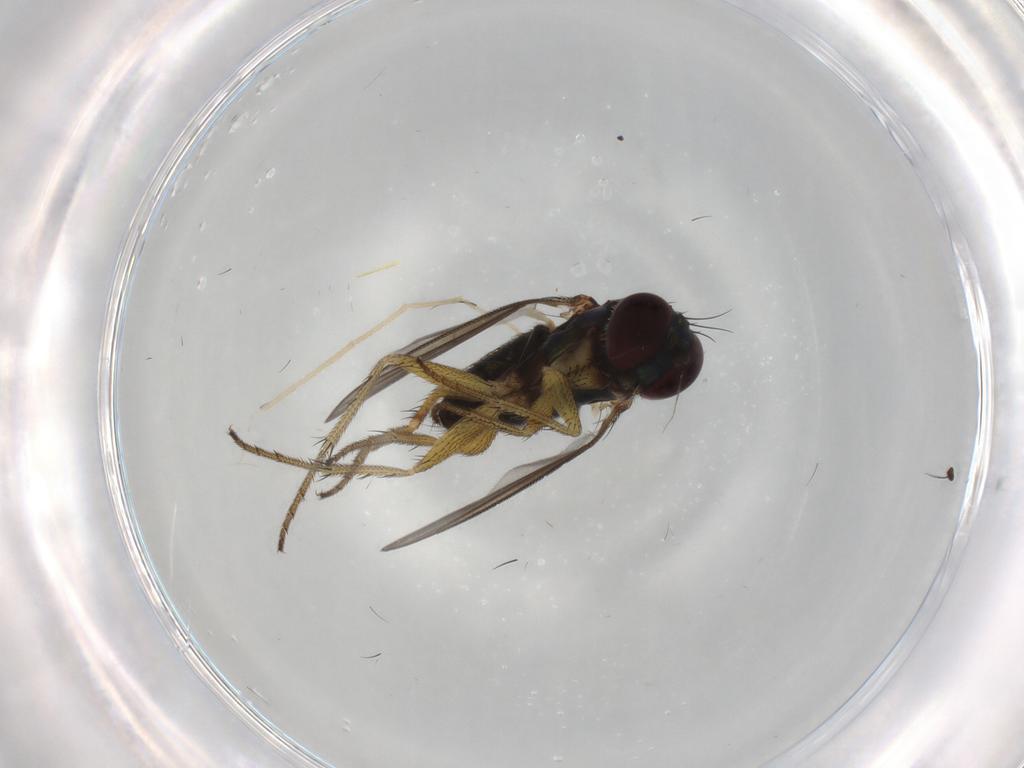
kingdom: Animalia
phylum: Arthropoda
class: Insecta
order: Diptera
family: Dolichopodidae
